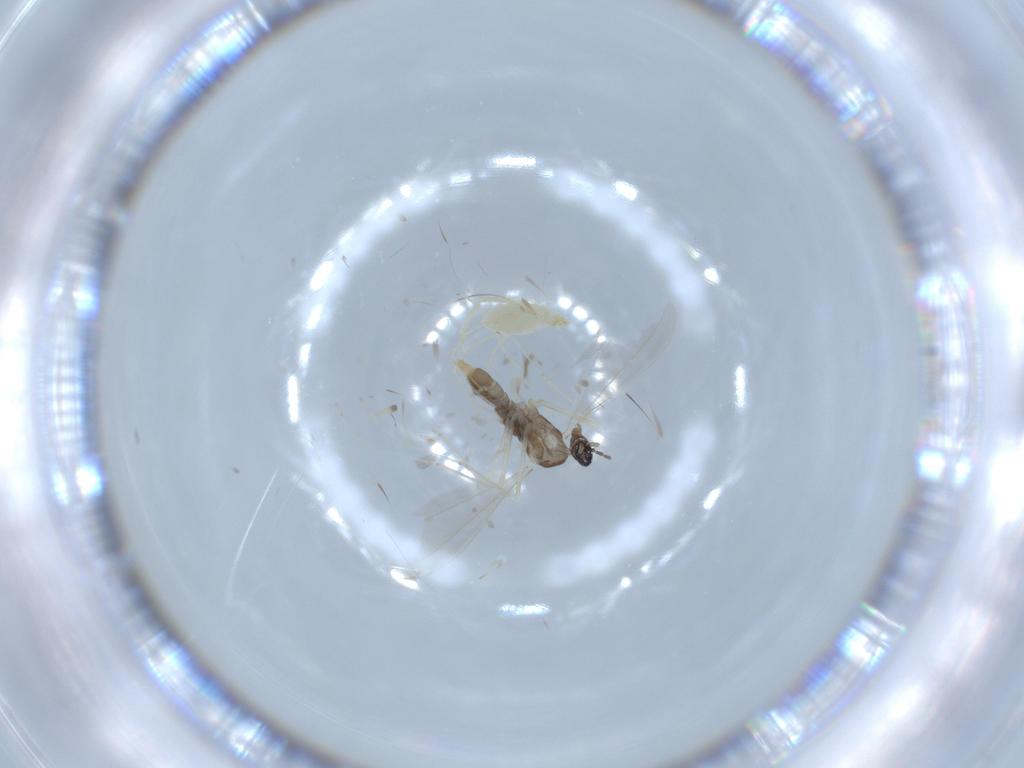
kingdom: Animalia
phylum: Arthropoda
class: Insecta
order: Diptera
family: Cecidomyiidae
